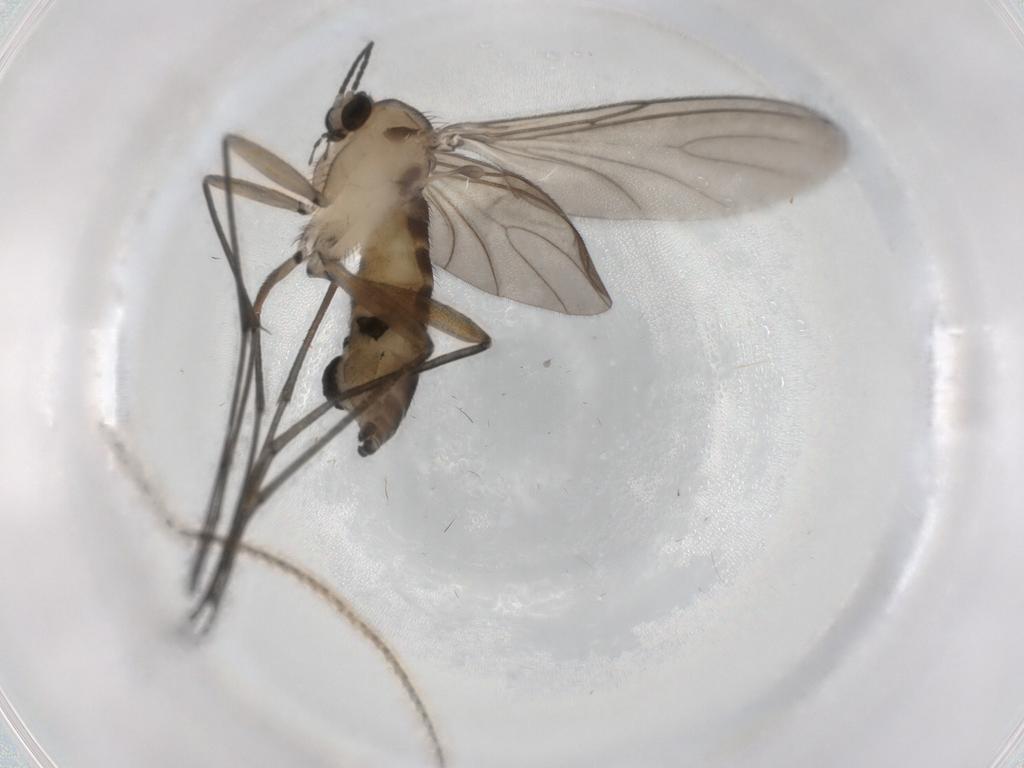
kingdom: Animalia
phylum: Arthropoda
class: Insecta
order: Diptera
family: Sciaridae
